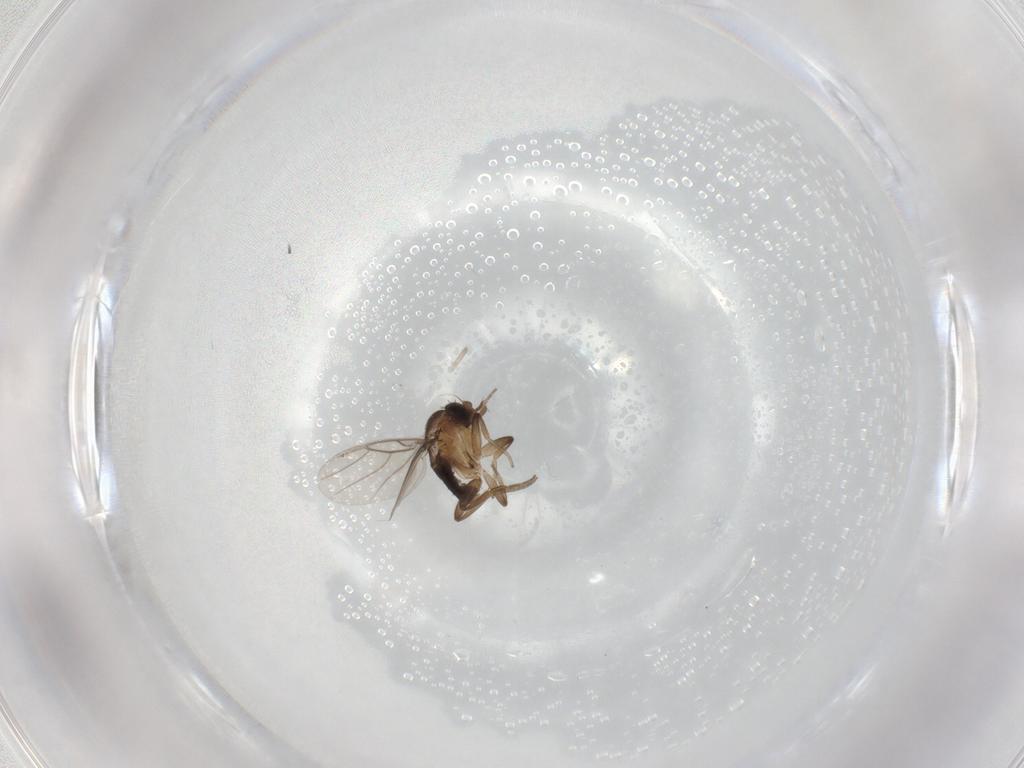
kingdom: Animalia
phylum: Arthropoda
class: Insecta
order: Diptera
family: Phoridae
